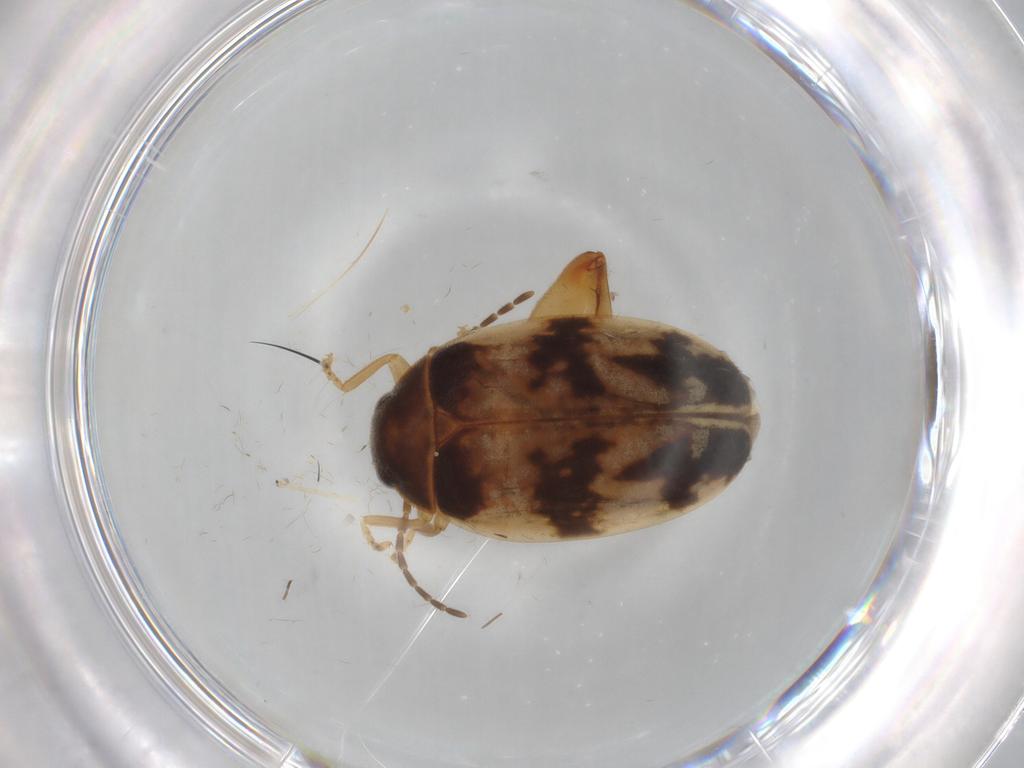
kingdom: Animalia
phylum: Arthropoda
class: Insecta
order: Coleoptera
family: Scirtidae
